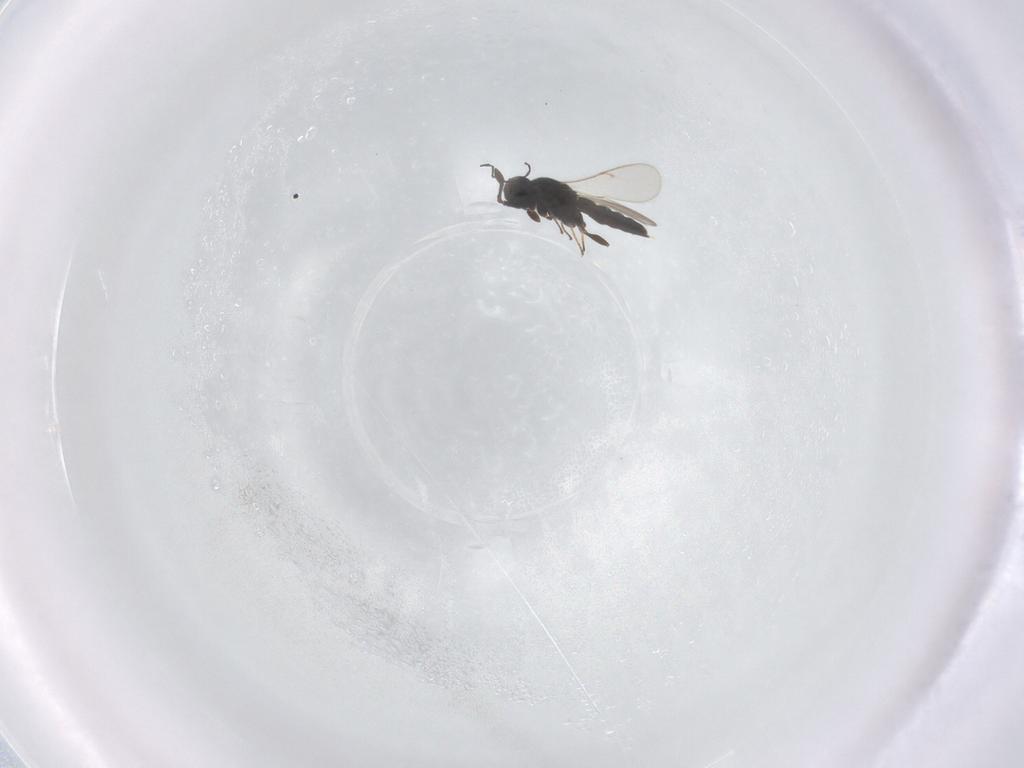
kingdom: Animalia
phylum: Arthropoda
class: Insecta
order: Hymenoptera
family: Scelionidae
